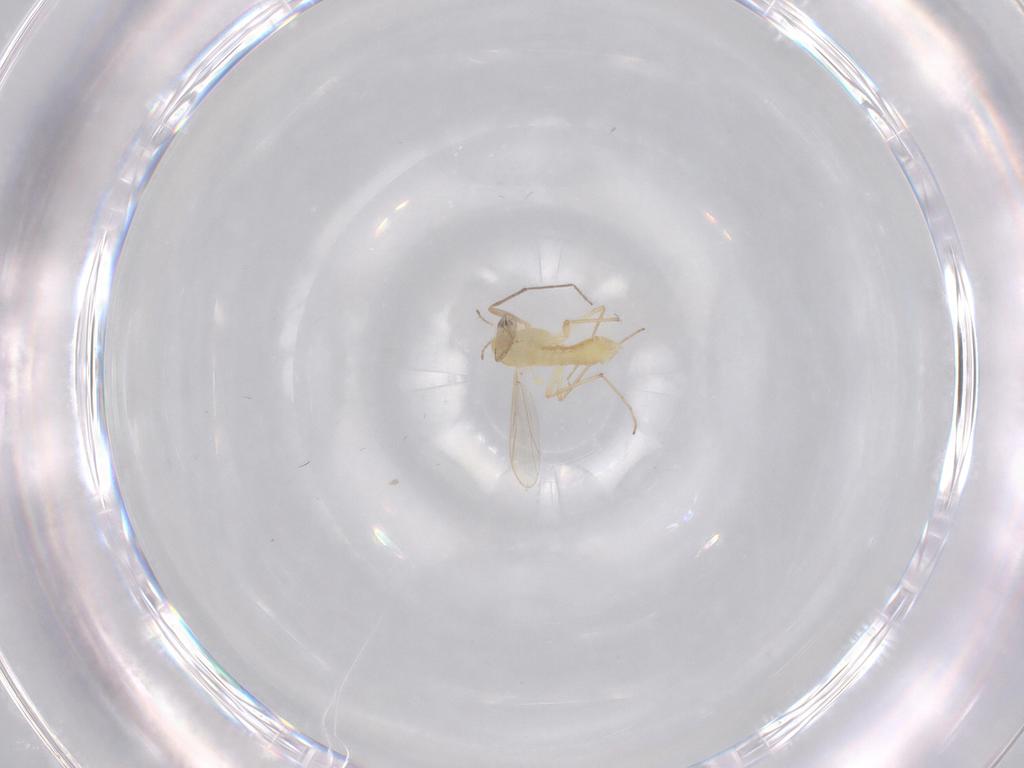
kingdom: Animalia
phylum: Arthropoda
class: Insecta
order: Diptera
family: Chironomidae
